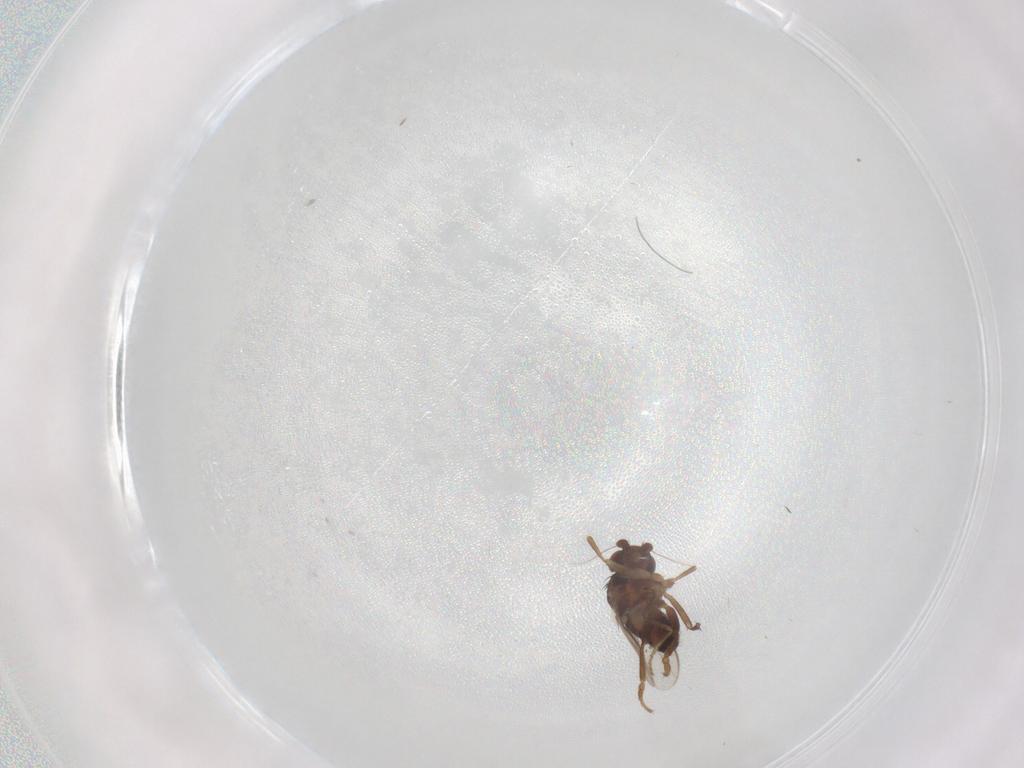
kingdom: Animalia
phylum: Arthropoda
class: Insecta
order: Diptera
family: Sphaeroceridae
